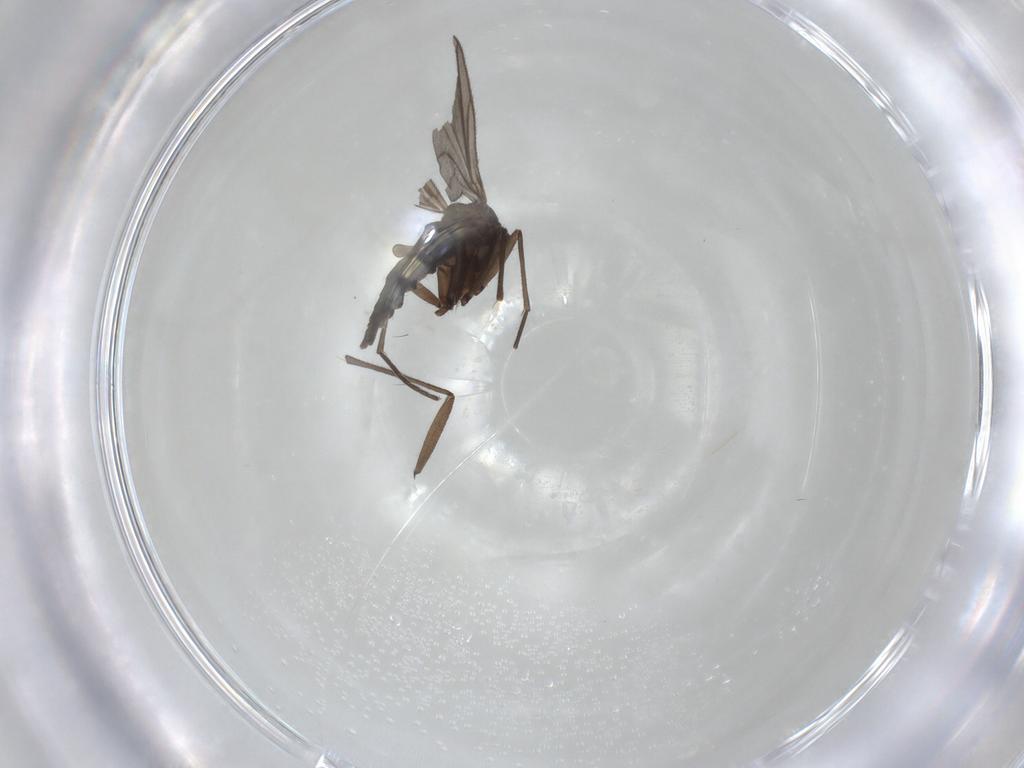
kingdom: Animalia
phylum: Arthropoda
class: Insecta
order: Diptera
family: Sciaridae
